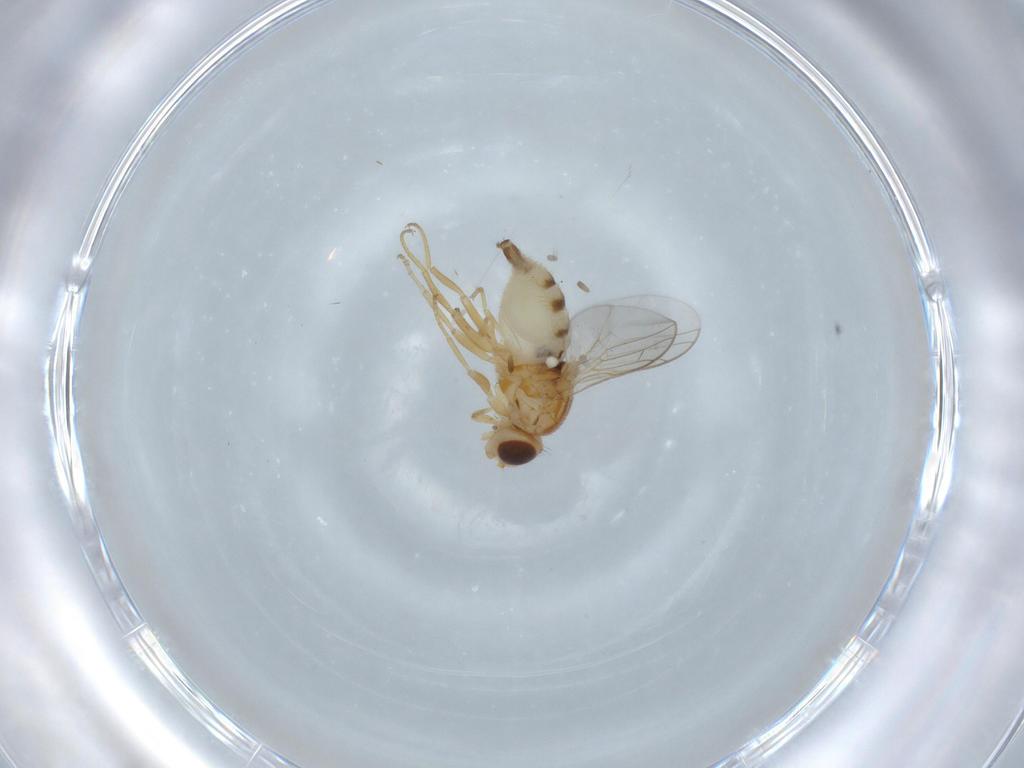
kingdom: Animalia
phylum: Arthropoda
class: Insecta
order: Diptera
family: Chloropidae
